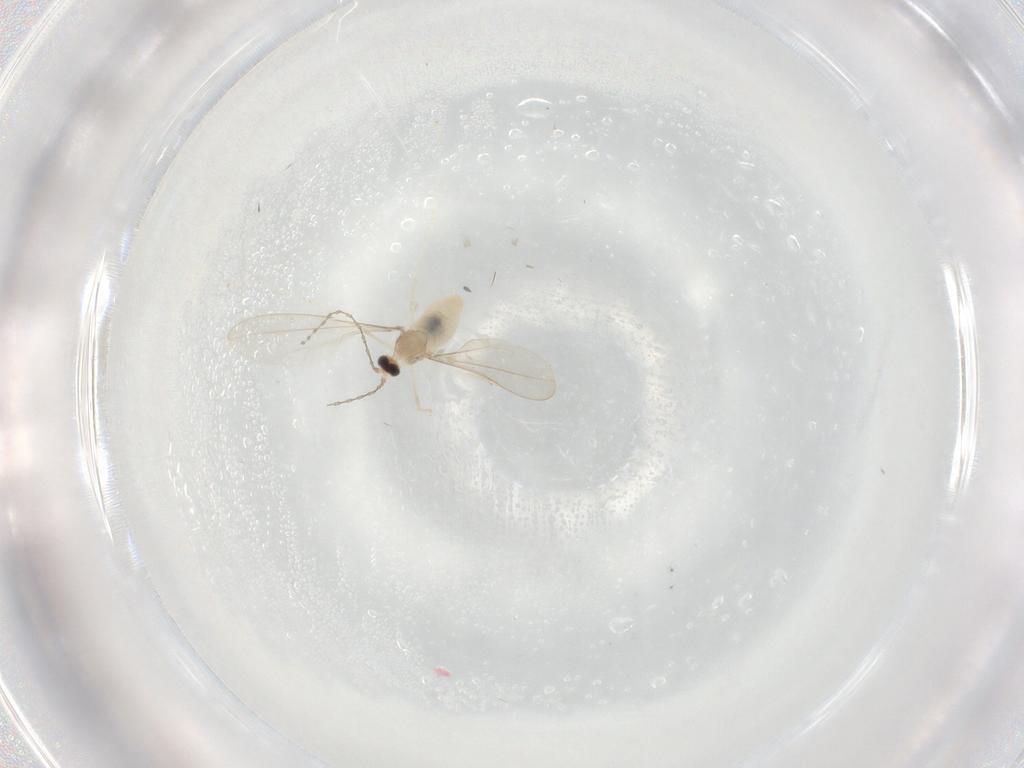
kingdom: Animalia
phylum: Arthropoda
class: Insecta
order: Diptera
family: Cecidomyiidae
